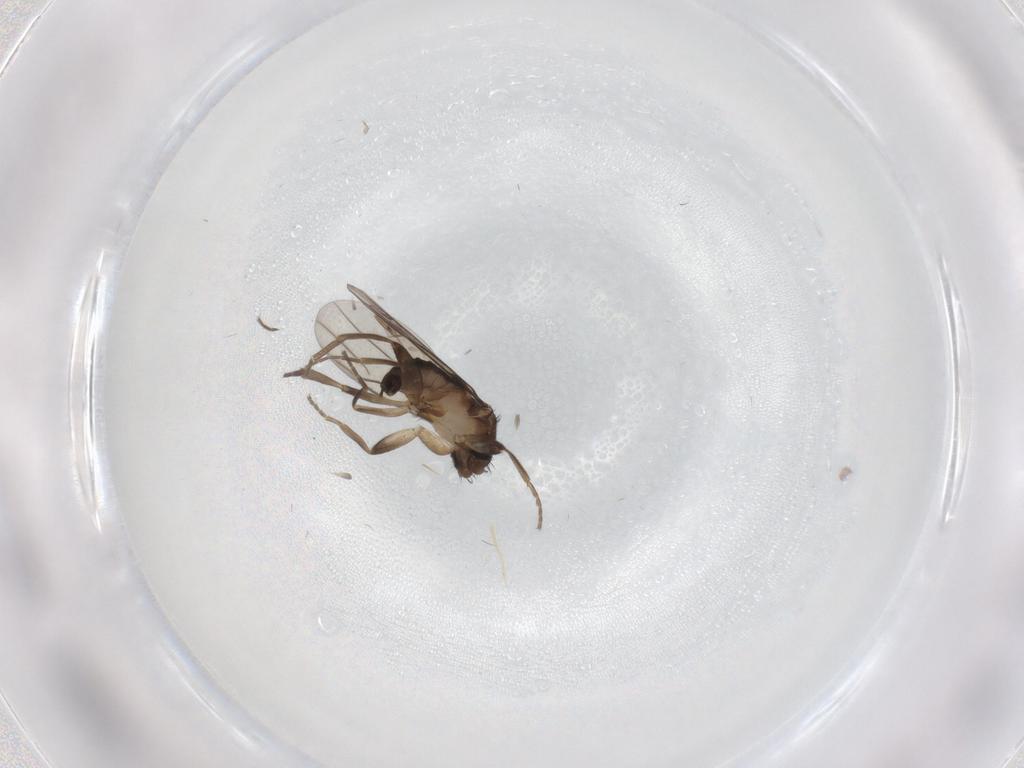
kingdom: Animalia
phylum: Arthropoda
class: Insecta
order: Diptera
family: Phoridae
